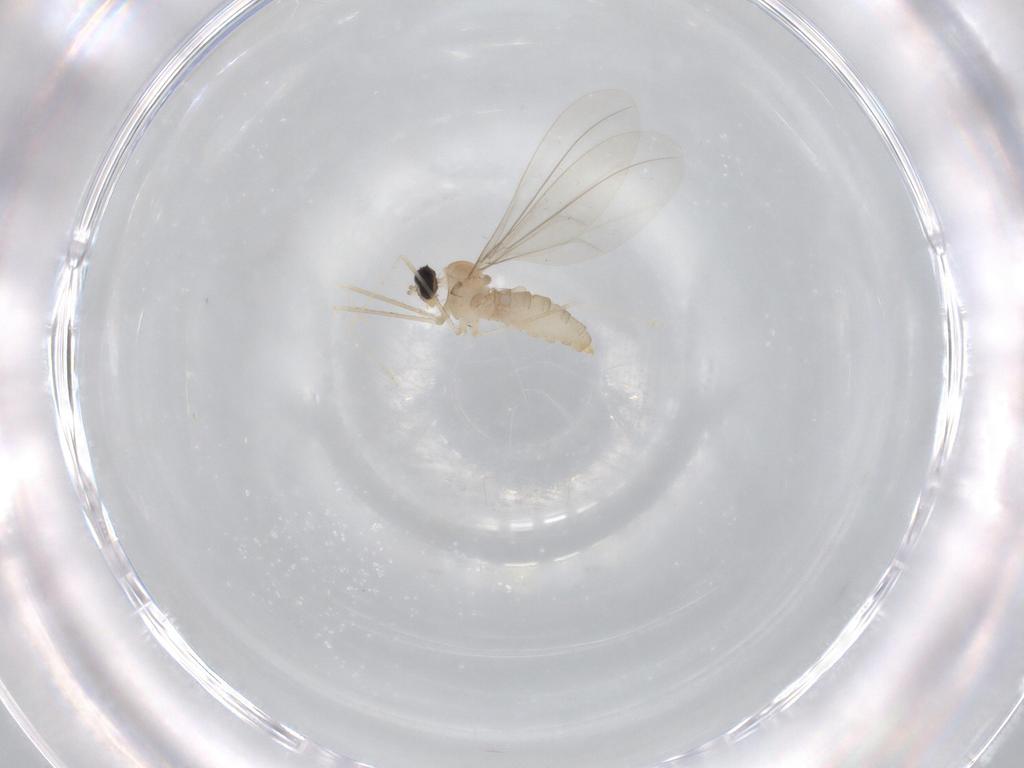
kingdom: Animalia
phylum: Arthropoda
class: Insecta
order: Diptera
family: Cecidomyiidae
